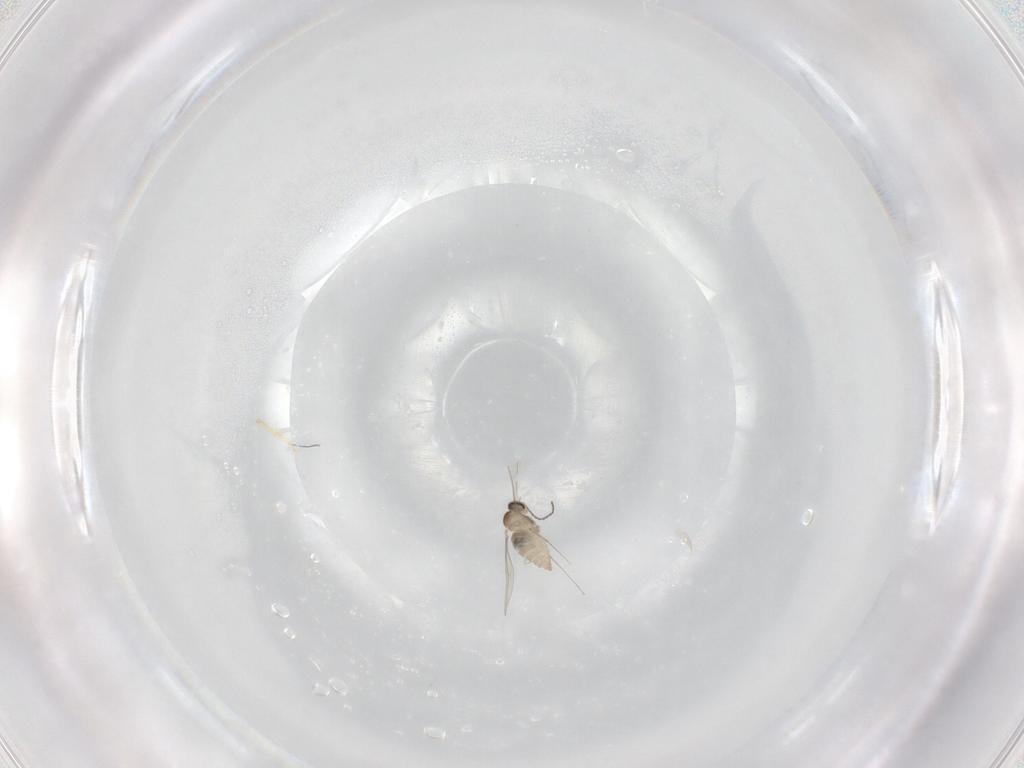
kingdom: Animalia
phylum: Arthropoda
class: Insecta
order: Diptera
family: Cecidomyiidae
